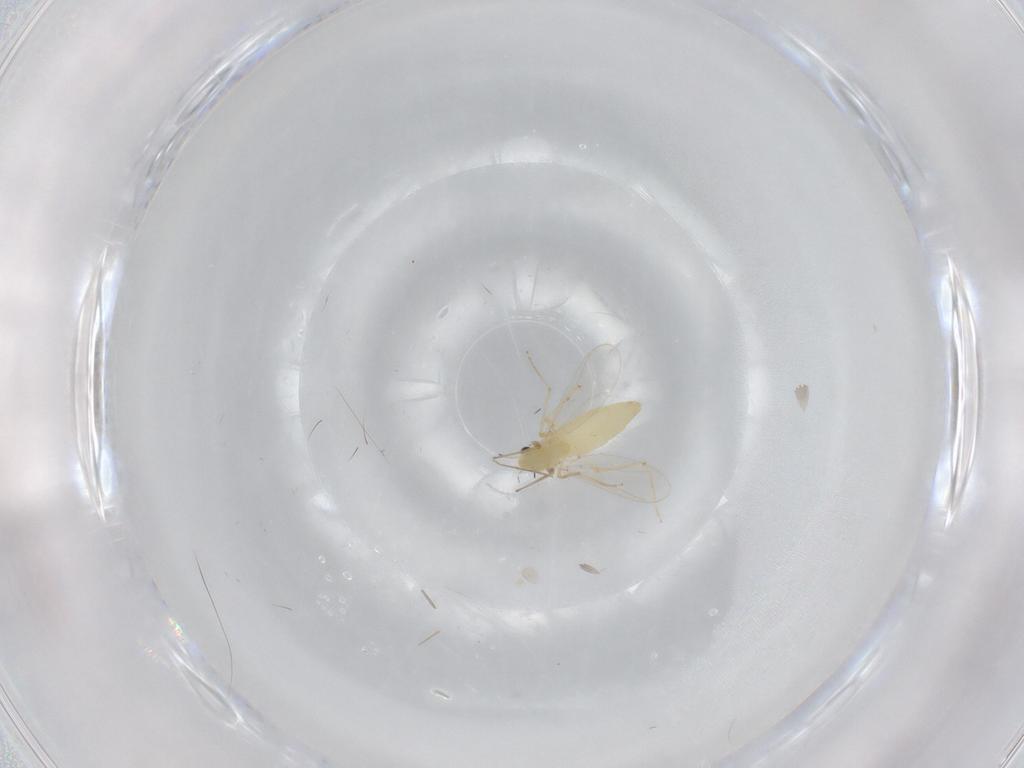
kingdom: Animalia
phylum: Arthropoda
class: Insecta
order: Diptera
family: Chironomidae
